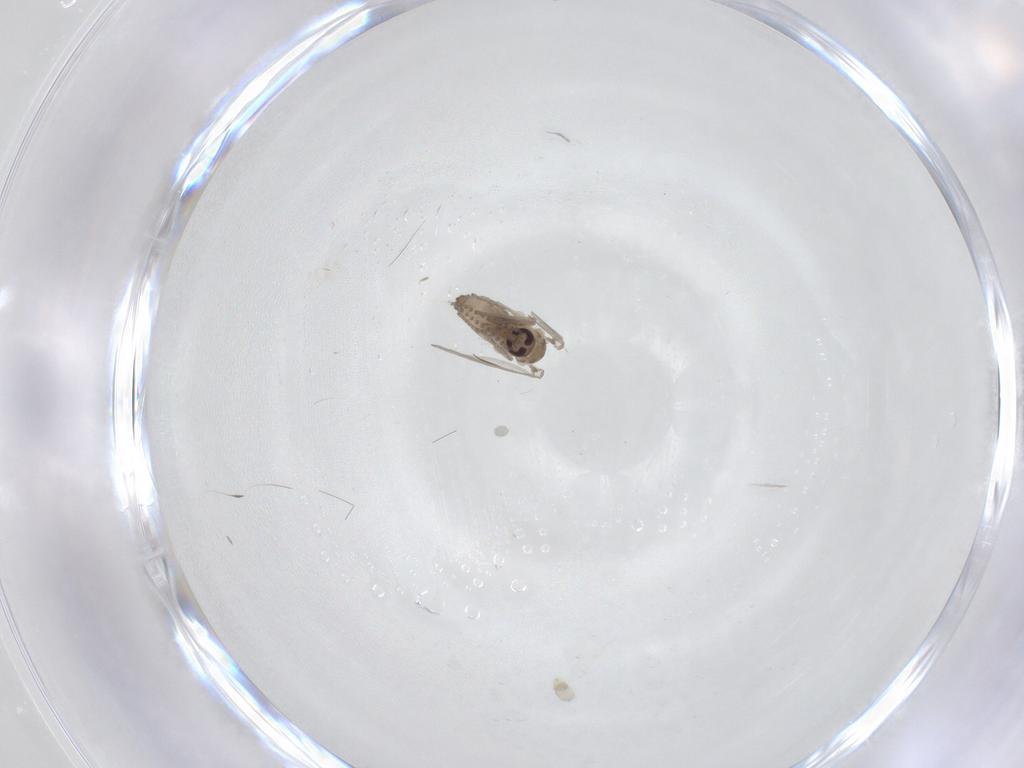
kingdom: Animalia
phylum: Arthropoda
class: Insecta
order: Diptera
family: Psychodidae
